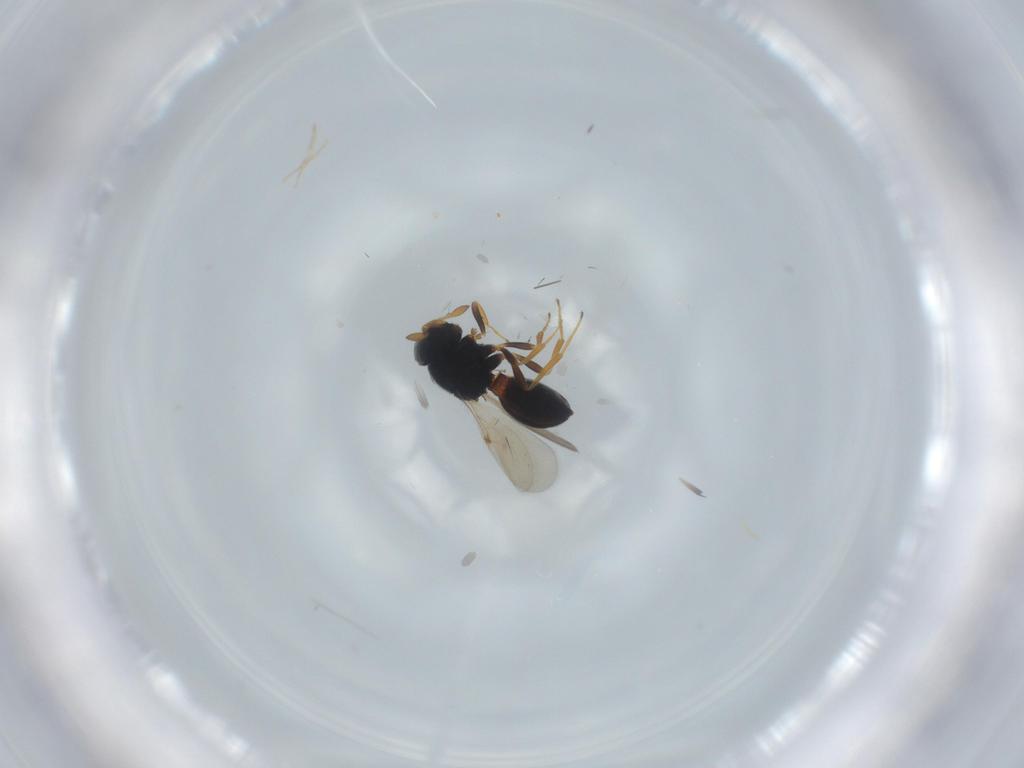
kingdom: Animalia
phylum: Arthropoda
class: Insecta
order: Hymenoptera
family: Scelionidae
